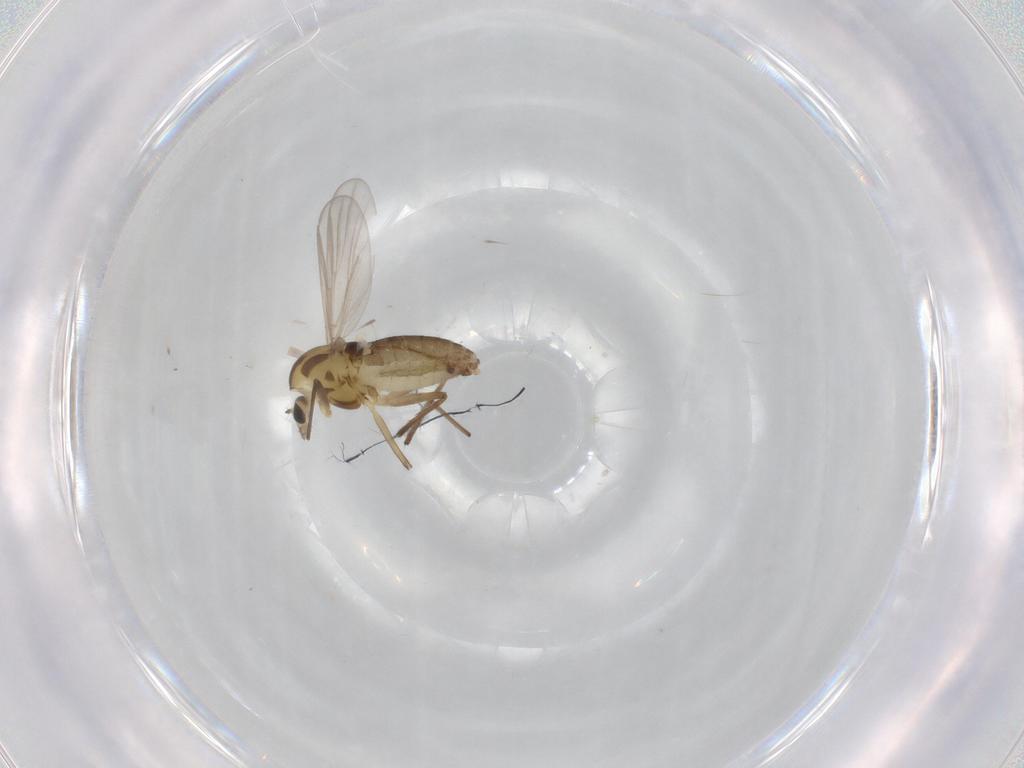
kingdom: Animalia
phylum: Arthropoda
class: Insecta
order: Diptera
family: Chironomidae
